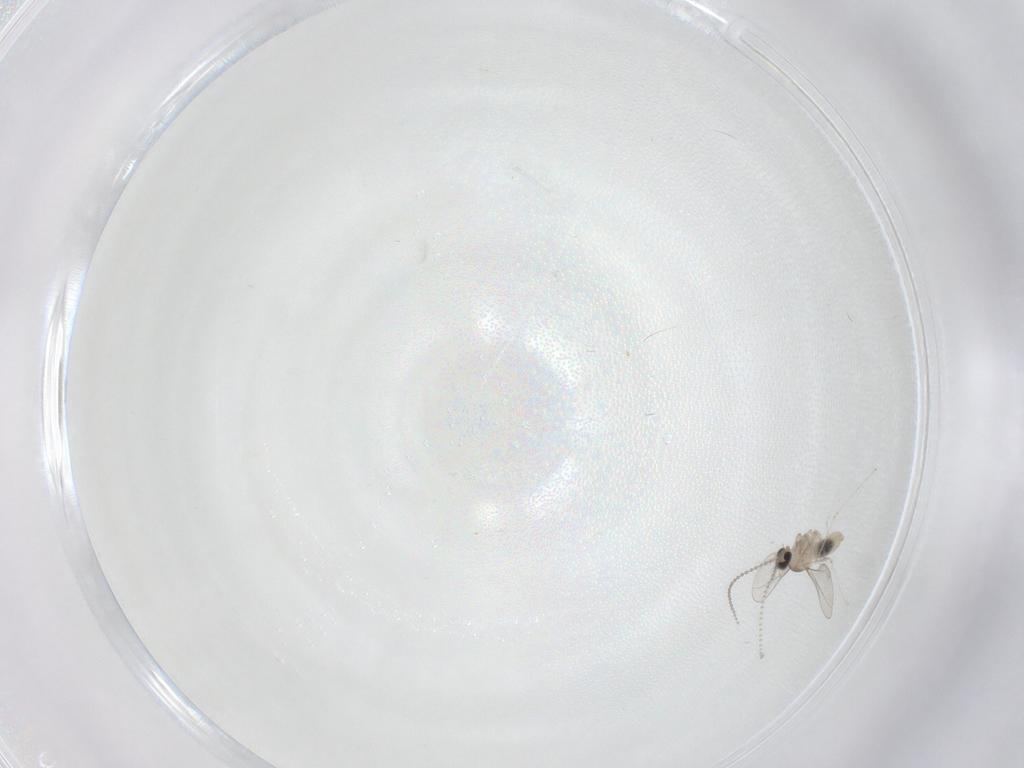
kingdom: Animalia
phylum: Arthropoda
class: Insecta
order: Diptera
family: Cecidomyiidae
